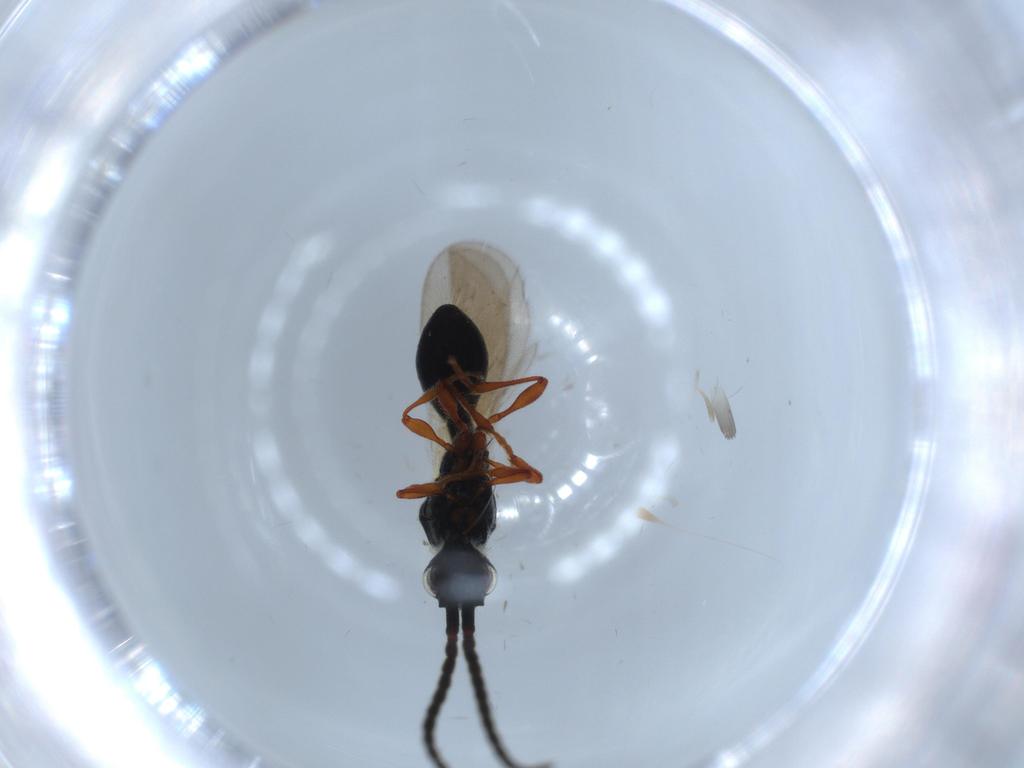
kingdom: Animalia
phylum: Arthropoda
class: Insecta
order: Hymenoptera
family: Diapriidae
